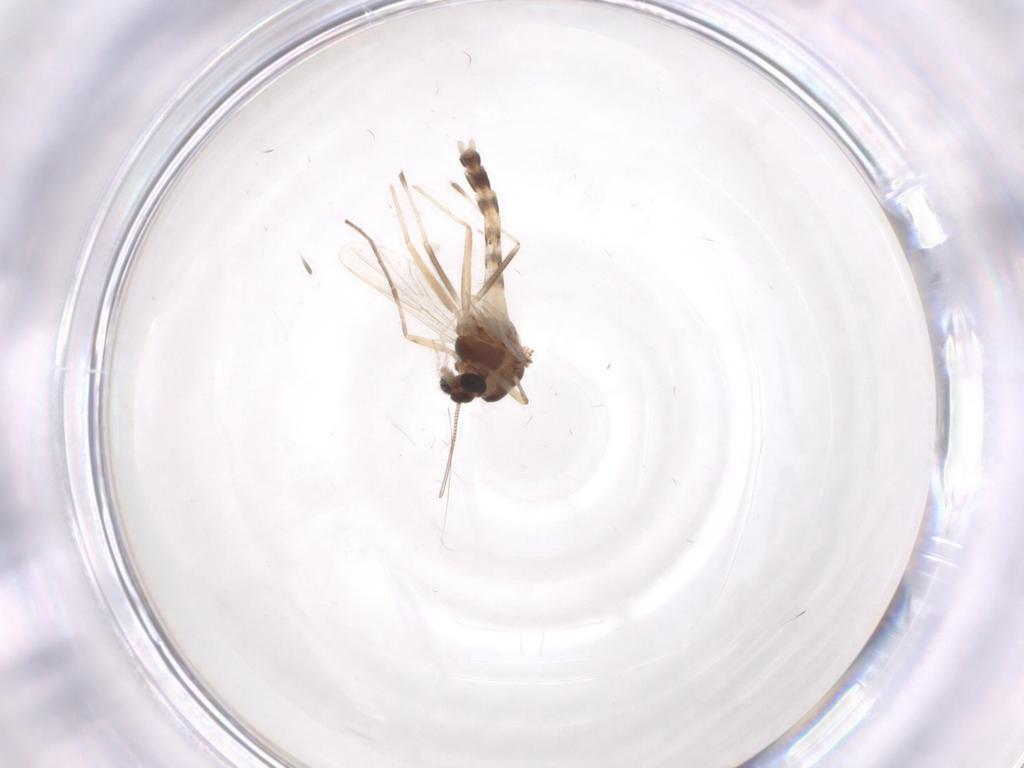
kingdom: Animalia
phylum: Arthropoda
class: Insecta
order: Diptera
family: Chironomidae
